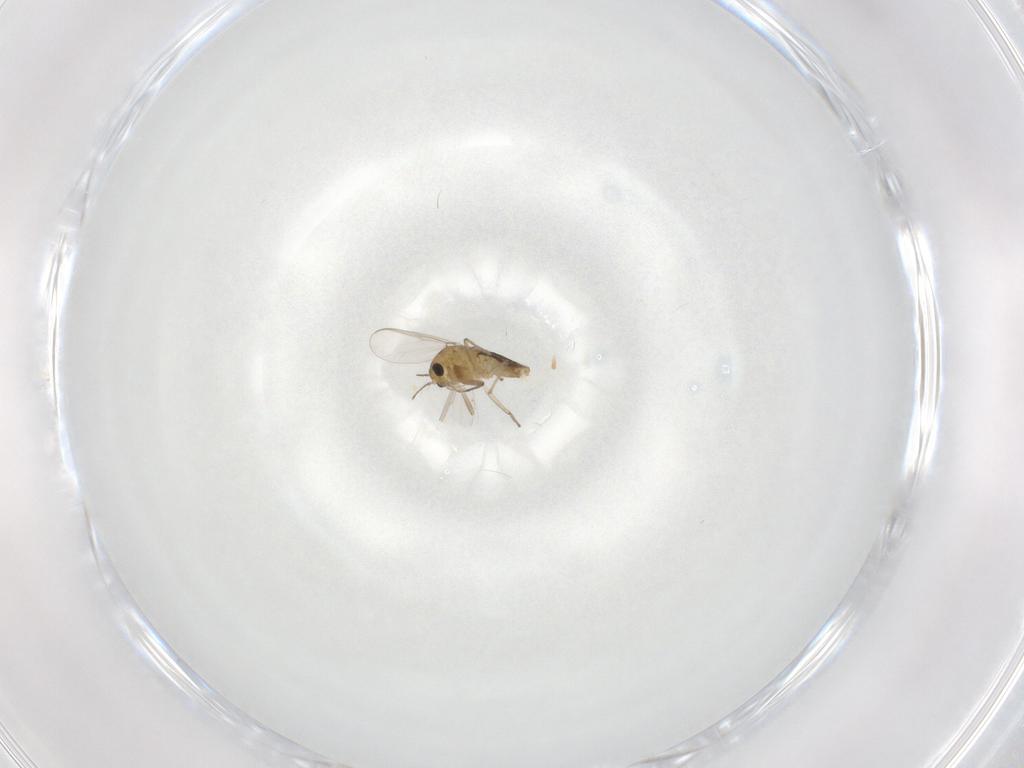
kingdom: Animalia
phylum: Arthropoda
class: Insecta
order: Diptera
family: Chironomidae
